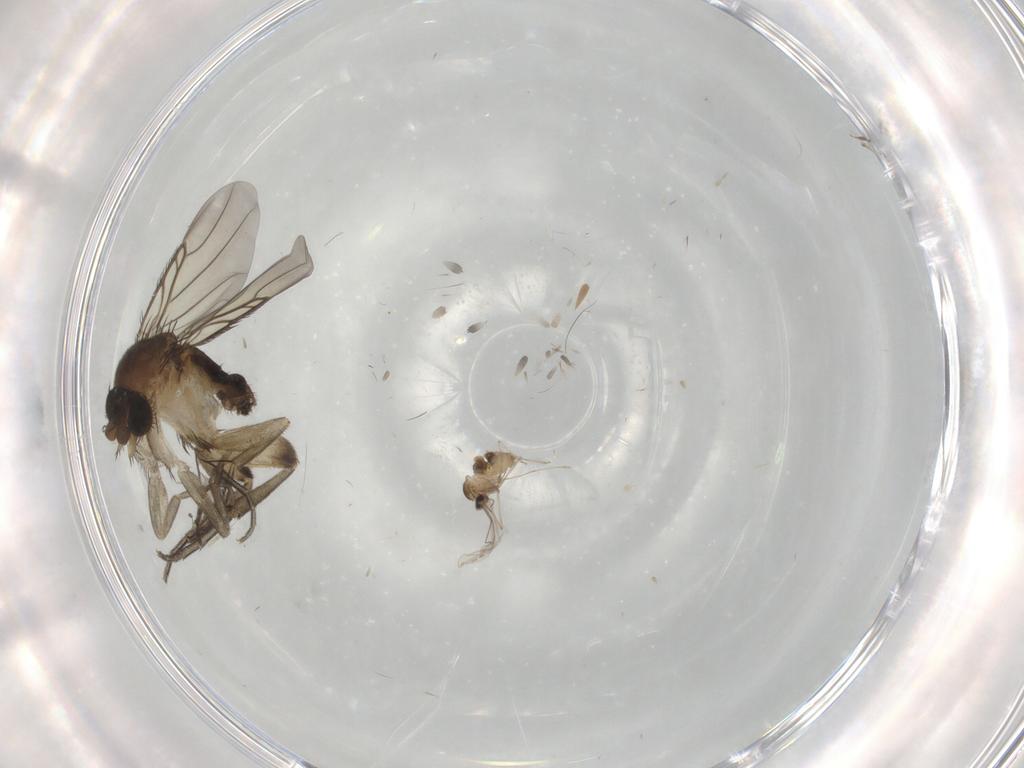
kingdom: Animalia
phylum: Arthropoda
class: Insecta
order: Diptera
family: Phoridae
